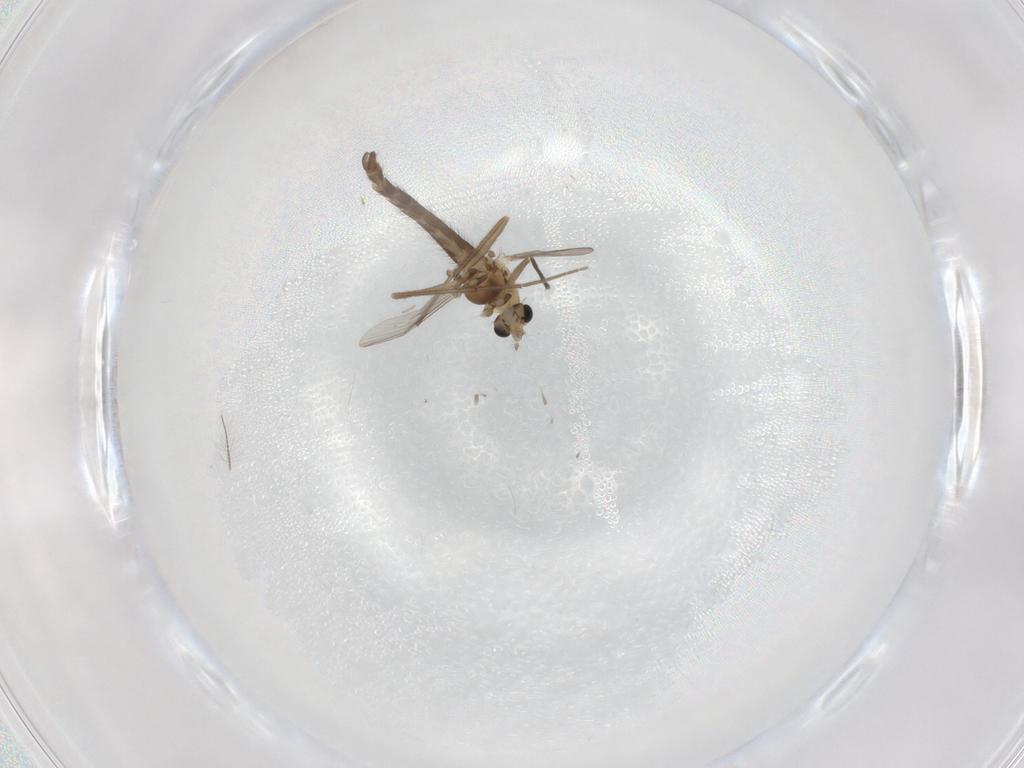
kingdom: Animalia
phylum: Arthropoda
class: Insecta
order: Diptera
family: Chironomidae
